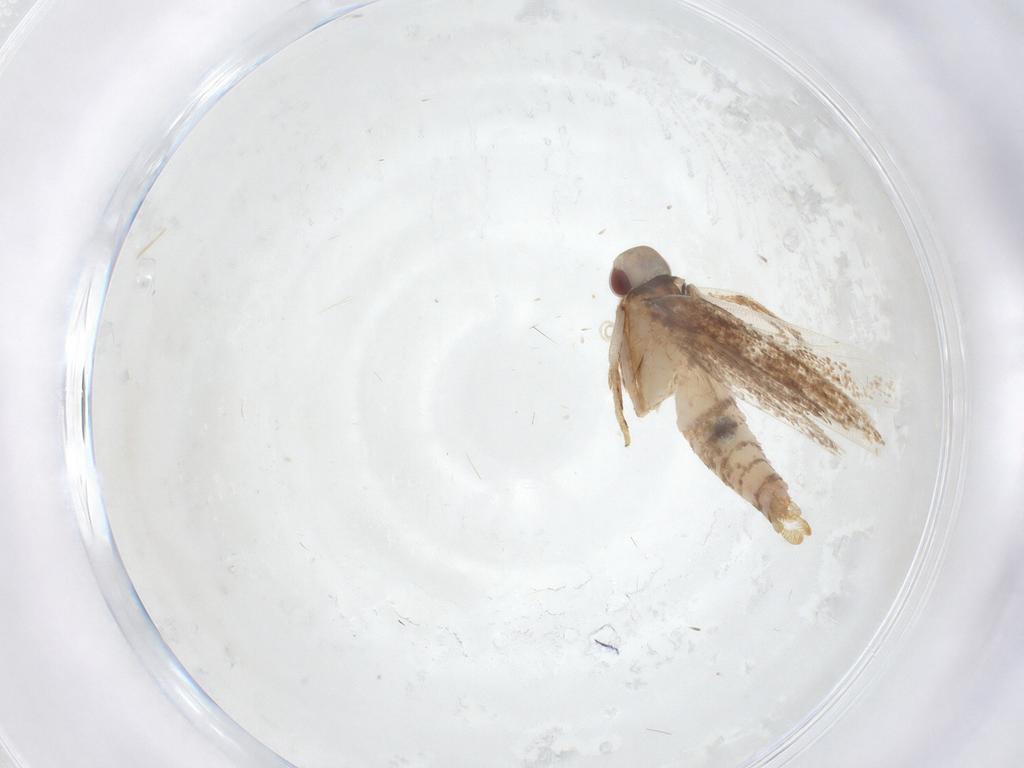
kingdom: Animalia
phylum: Arthropoda
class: Insecta
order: Lepidoptera
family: Cosmopterigidae
